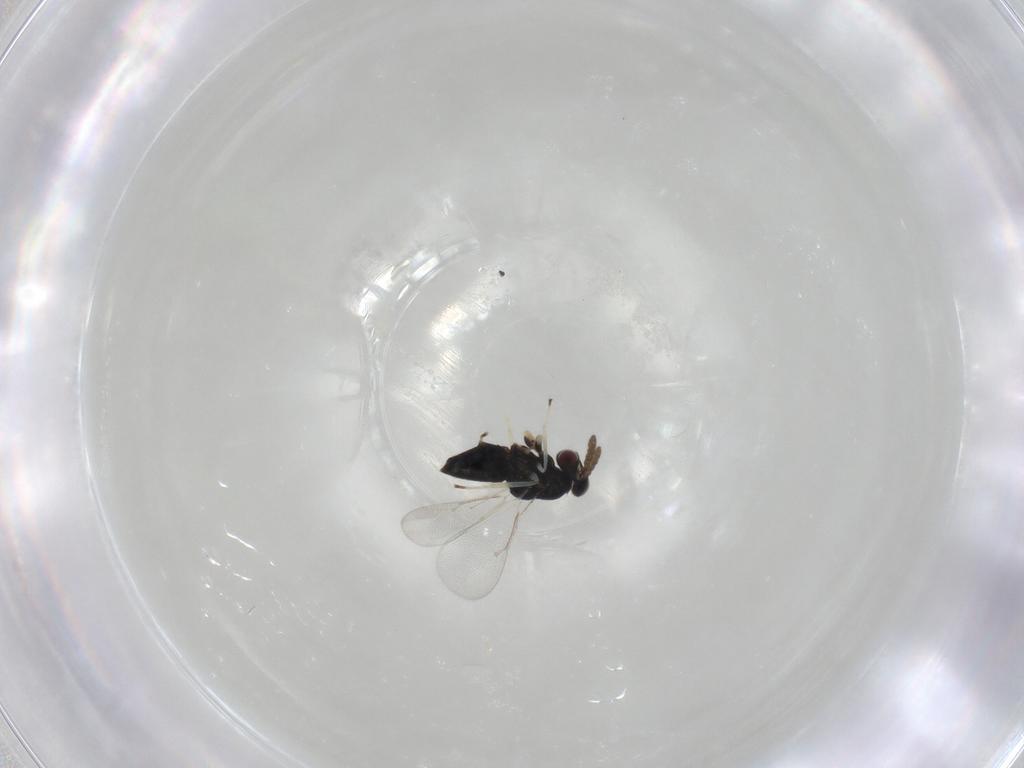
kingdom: Animalia
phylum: Arthropoda
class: Insecta
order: Hymenoptera
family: Eulophidae
